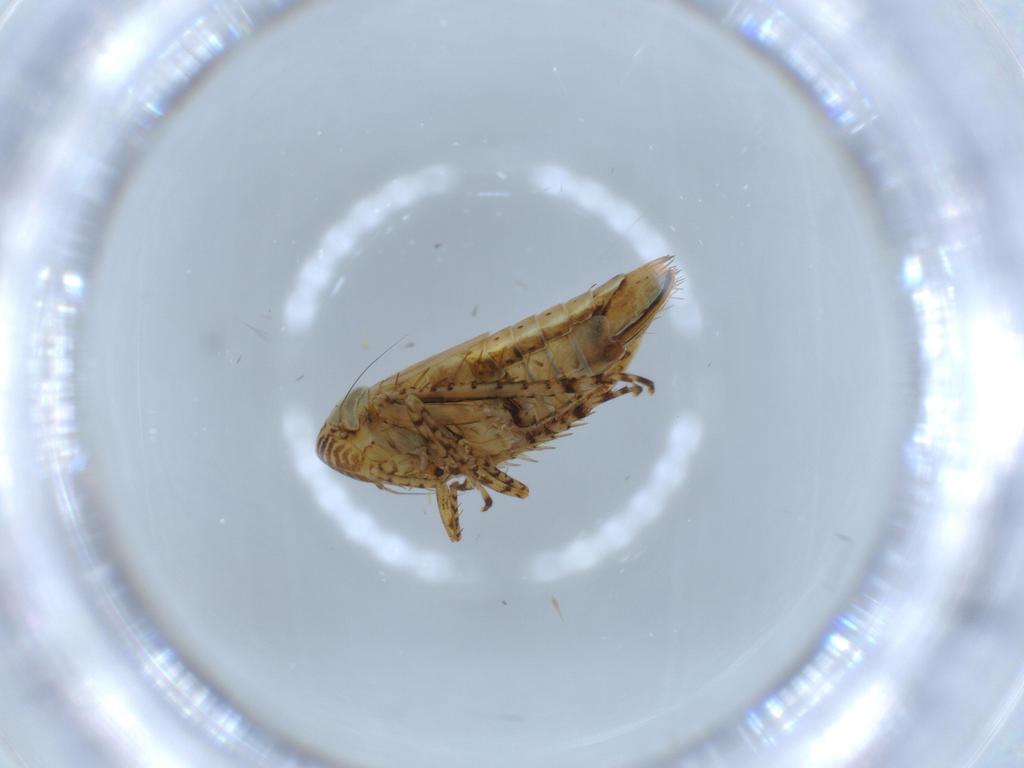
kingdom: Animalia
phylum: Arthropoda
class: Insecta
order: Hemiptera
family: Cicadellidae
